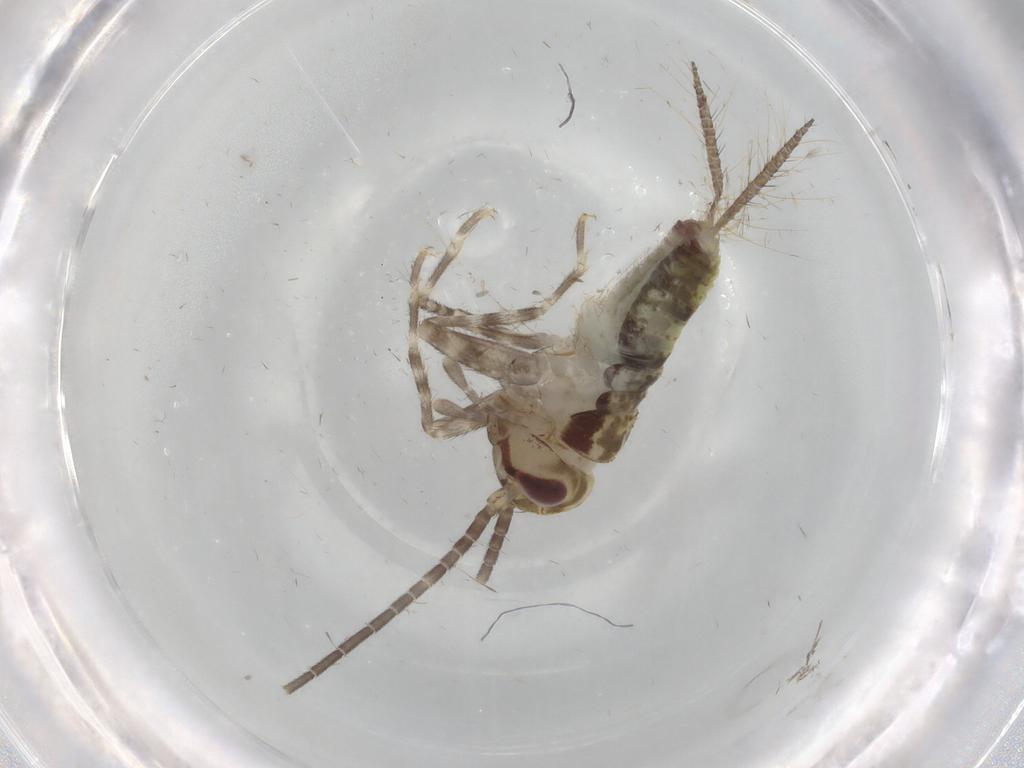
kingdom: Animalia
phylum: Arthropoda
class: Insecta
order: Orthoptera
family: Gryllidae
